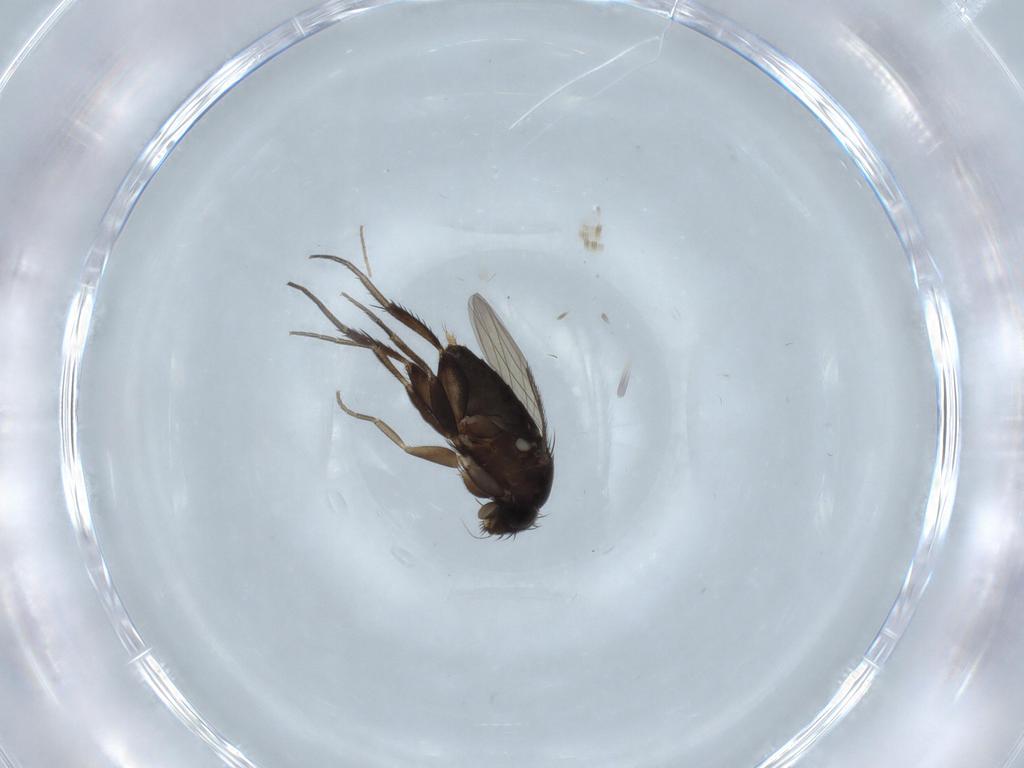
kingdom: Animalia
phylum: Arthropoda
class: Insecta
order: Diptera
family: Phoridae
